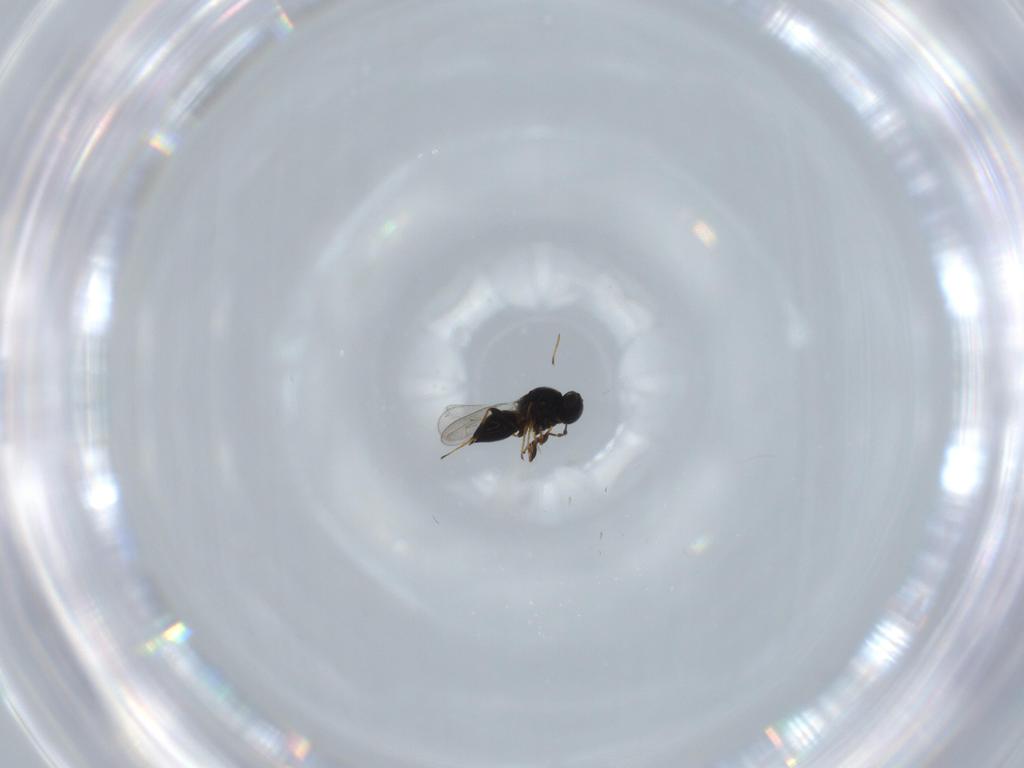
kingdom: Animalia
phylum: Arthropoda
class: Insecta
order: Hymenoptera
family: Platygastridae
